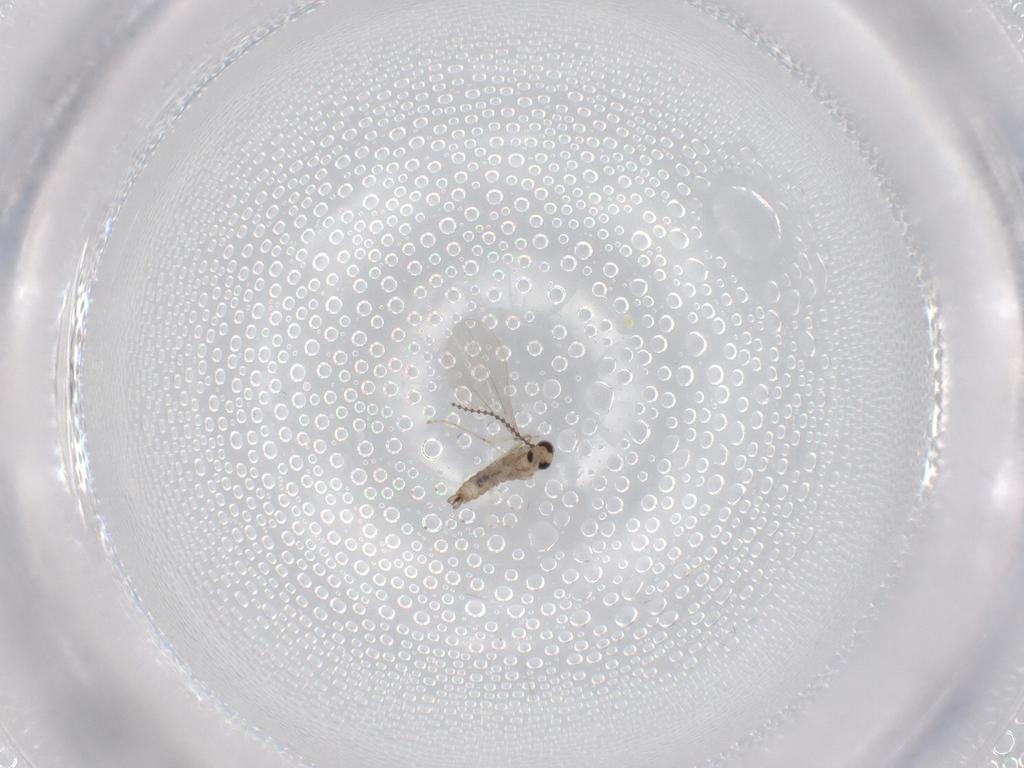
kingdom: Animalia
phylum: Arthropoda
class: Insecta
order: Diptera
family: Cecidomyiidae
